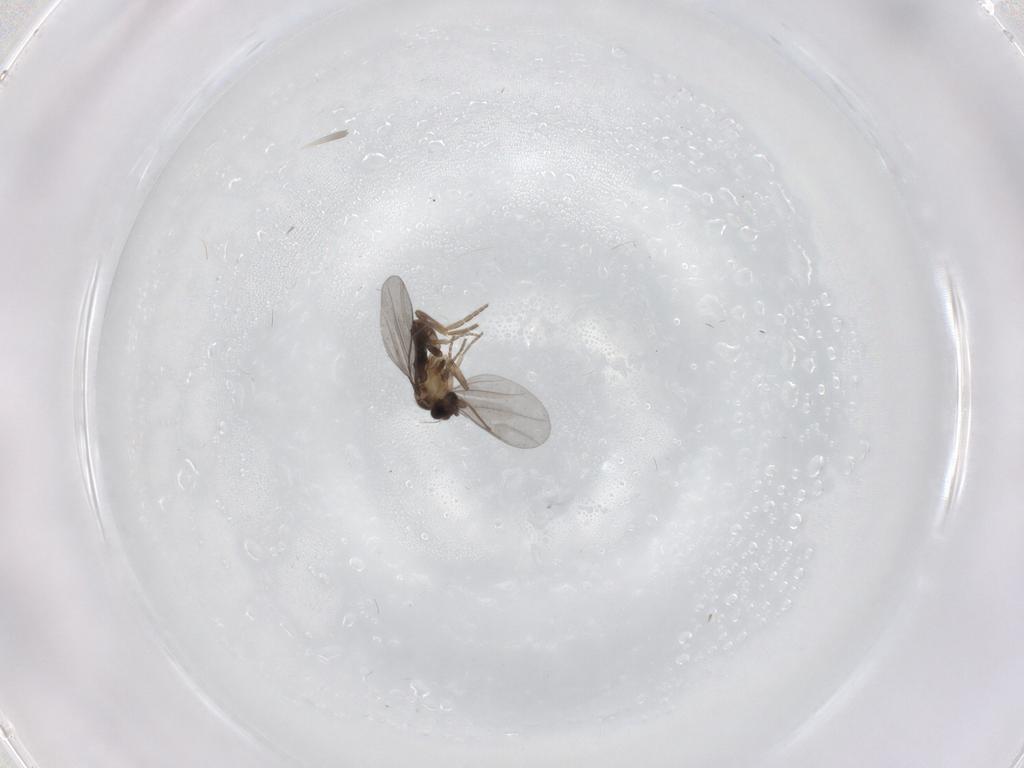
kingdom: Animalia
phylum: Arthropoda
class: Insecta
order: Diptera
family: Phoridae
